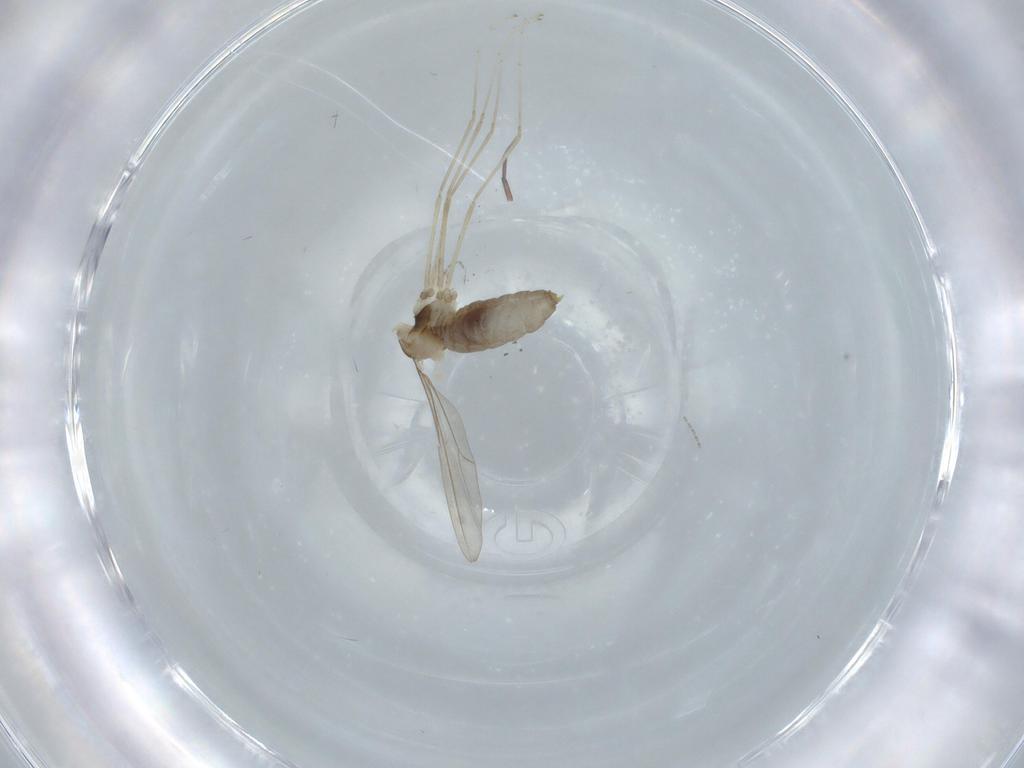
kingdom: Animalia
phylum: Arthropoda
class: Insecta
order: Diptera
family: Cecidomyiidae
